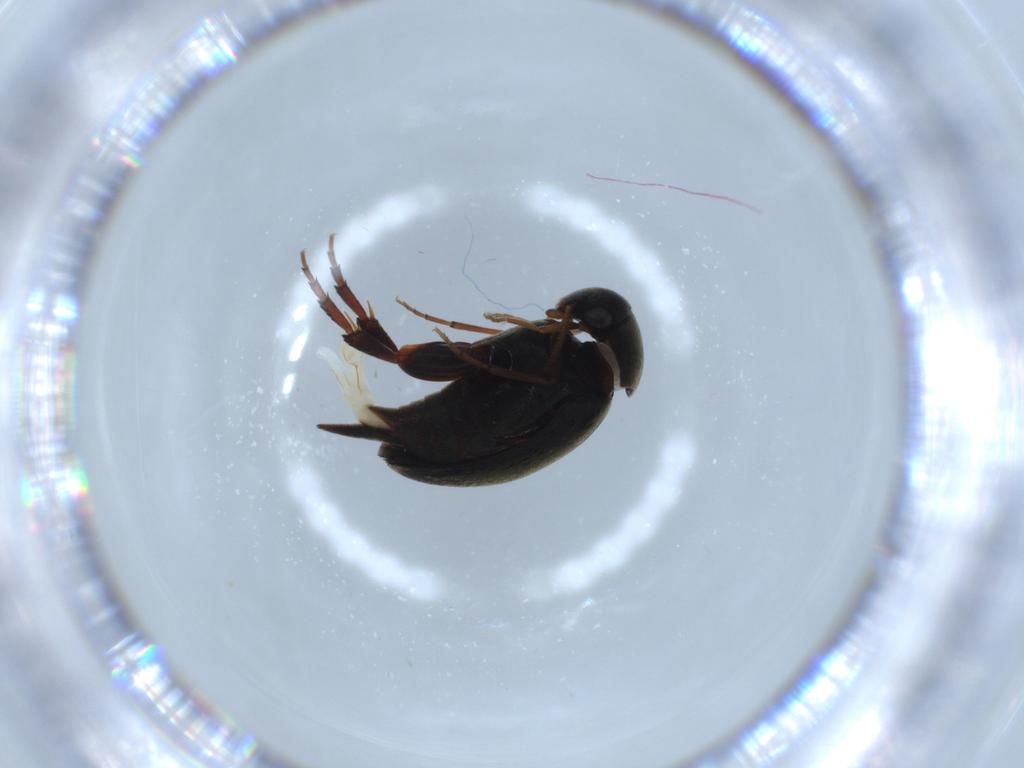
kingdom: Animalia
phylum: Arthropoda
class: Insecta
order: Coleoptera
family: Mordellidae
